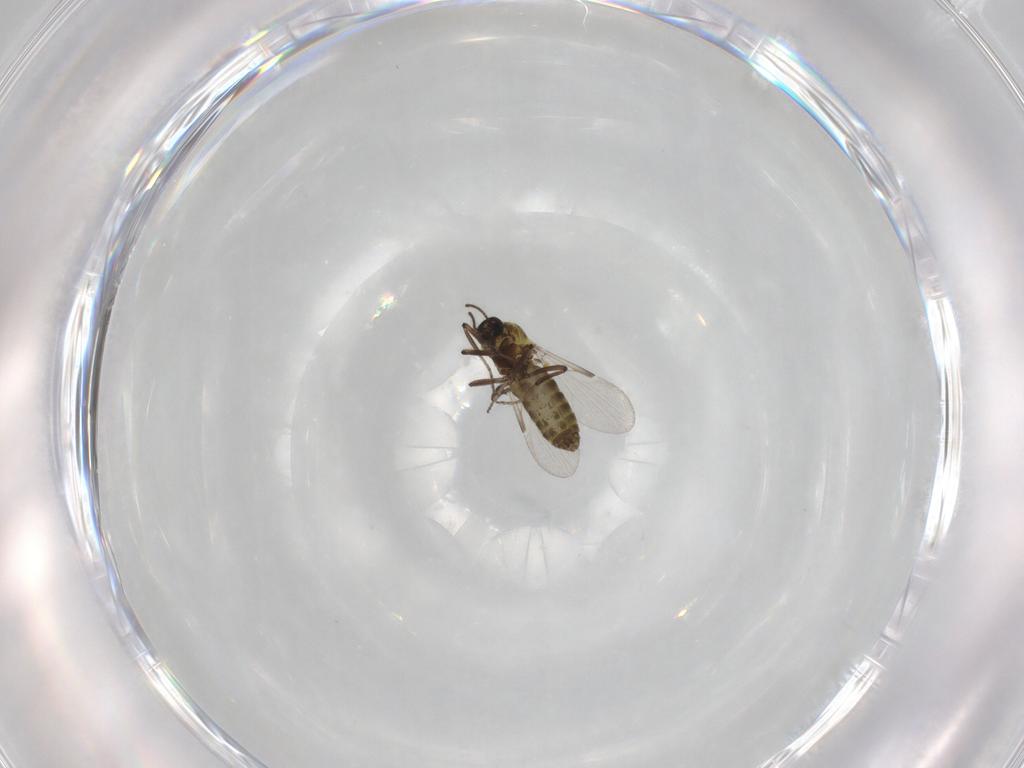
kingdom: Animalia
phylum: Arthropoda
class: Insecta
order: Diptera
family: Ceratopogonidae
